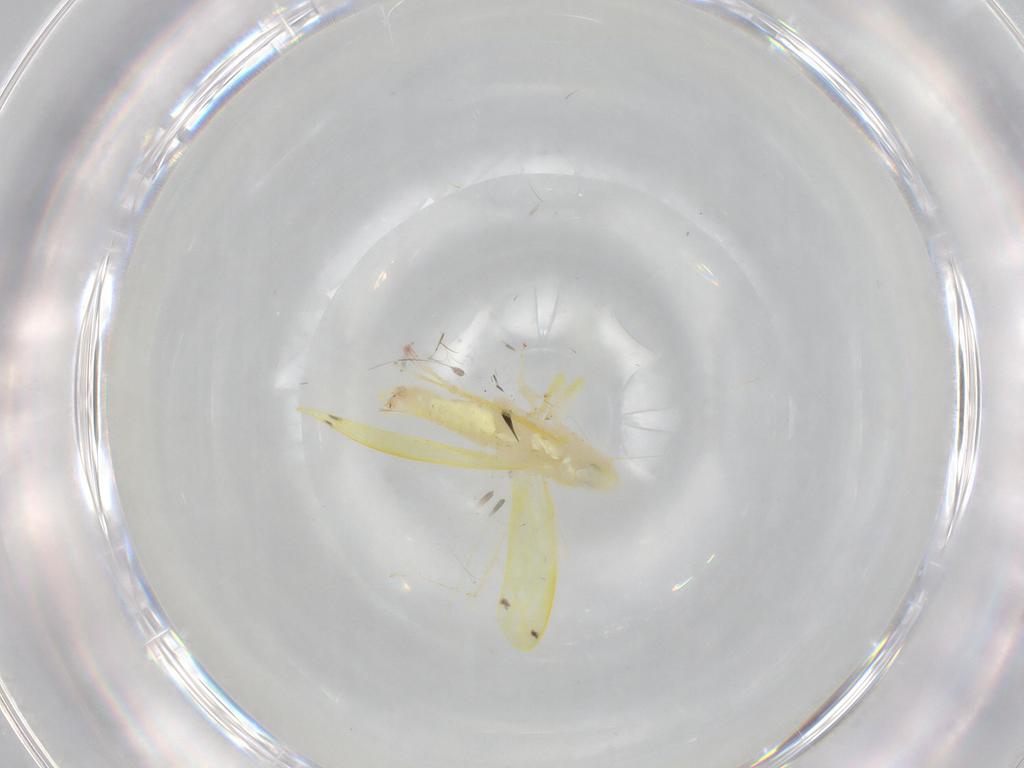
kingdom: Animalia
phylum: Arthropoda
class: Insecta
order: Hemiptera
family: Cicadellidae
